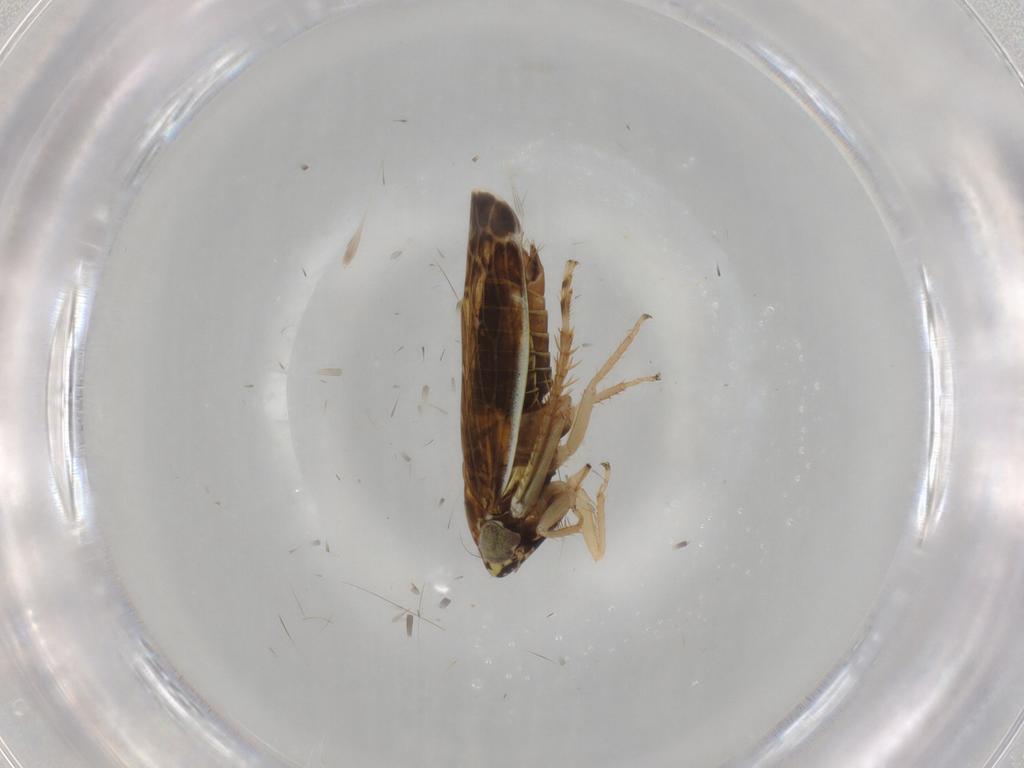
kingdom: Animalia
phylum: Arthropoda
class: Insecta
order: Hemiptera
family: Cicadellidae
